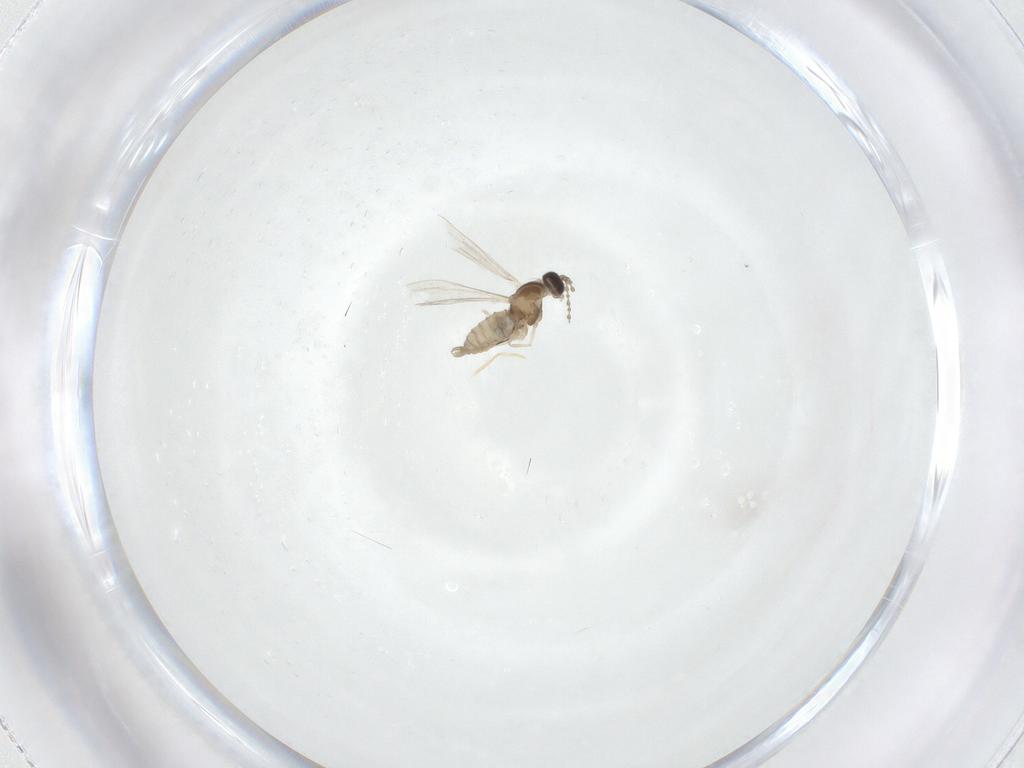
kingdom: Animalia
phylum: Arthropoda
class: Insecta
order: Diptera
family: Cecidomyiidae
